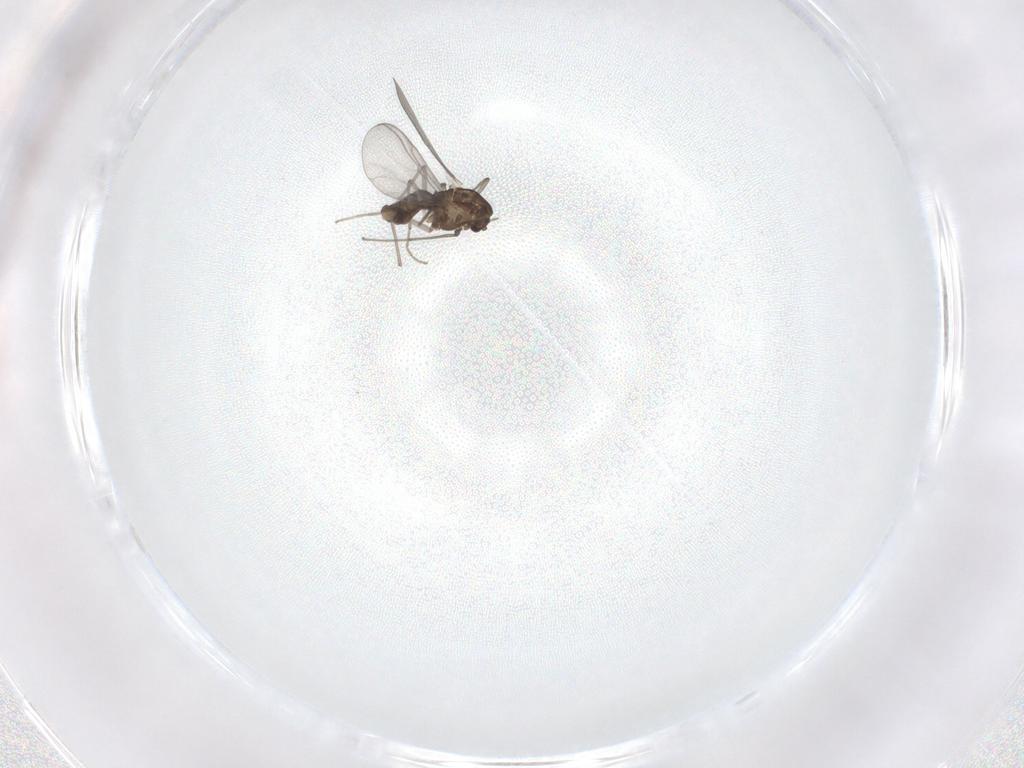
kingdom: Animalia
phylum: Arthropoda
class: Insecta
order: Diptera
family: Chironomidae
